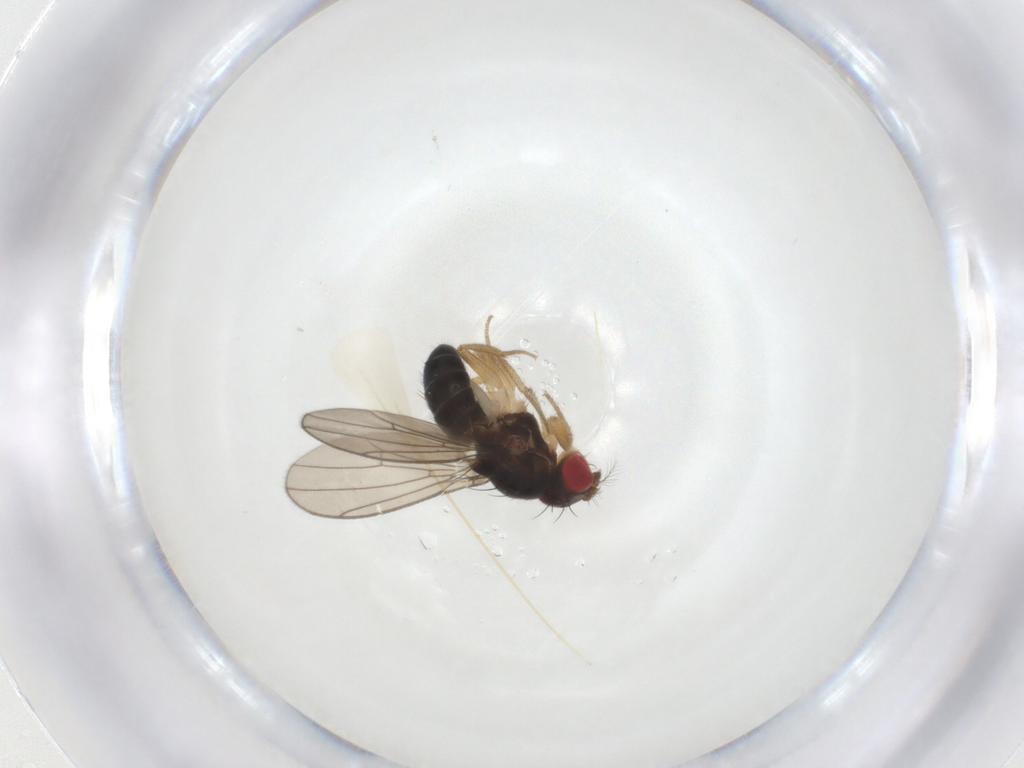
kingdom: Animalia
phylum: Arthropoda
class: Insecta
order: Diptera
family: Drosophilidae
